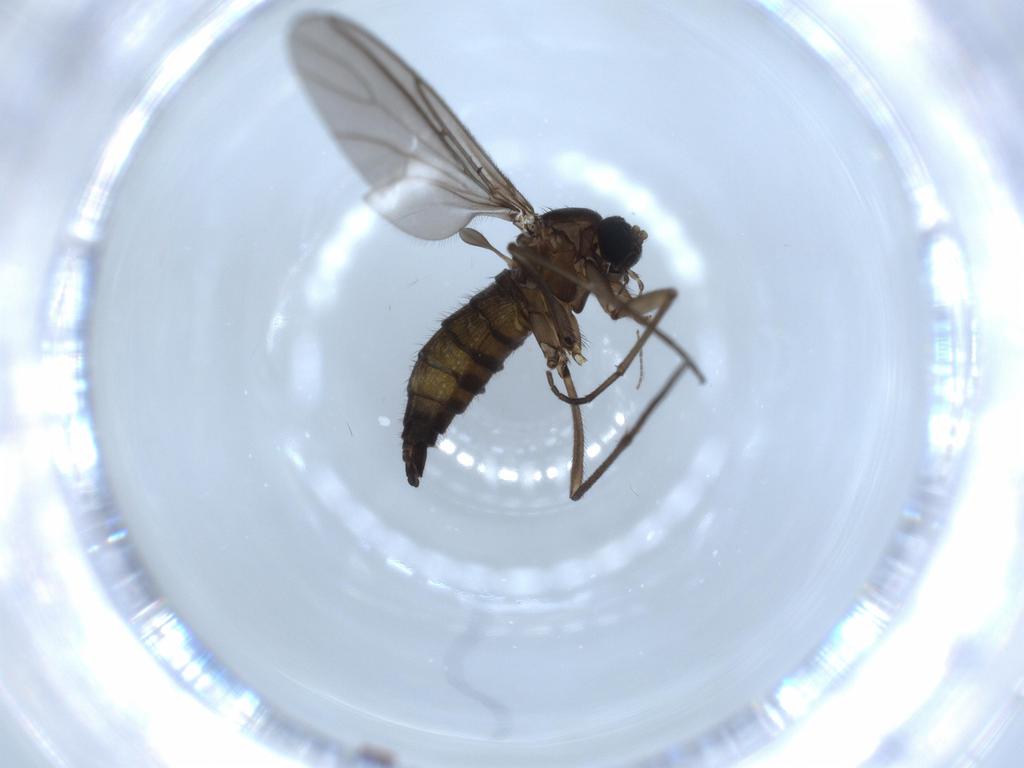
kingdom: Animalia
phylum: Arthropoda
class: Insecta
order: Diptera
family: Sciaridae
